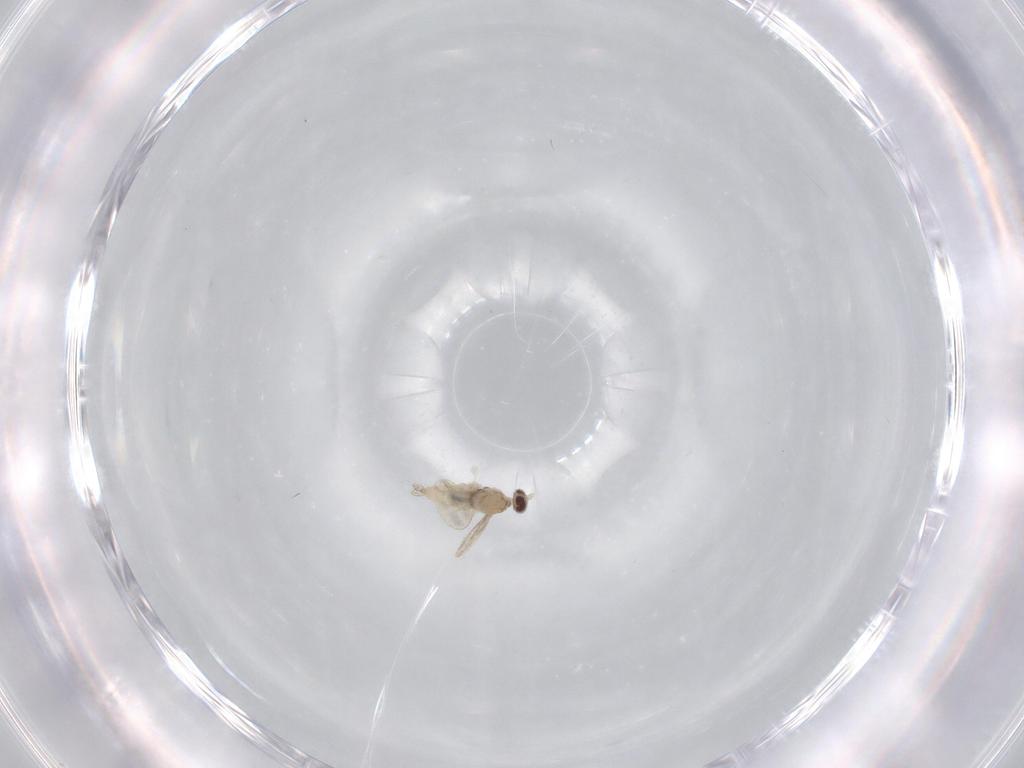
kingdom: Animalia
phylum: Arthropoda
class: Insecta
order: Diptera
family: Cecidomyiidae
